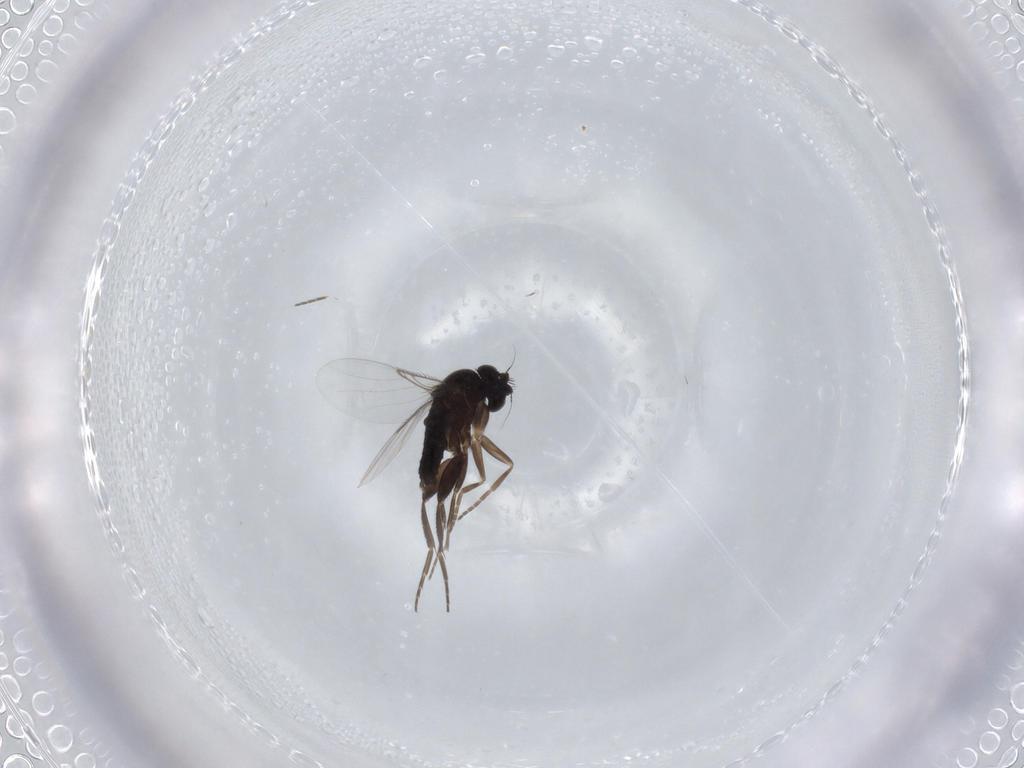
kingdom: Animalia
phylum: Arthropoda
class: Insecta
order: Diptera
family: Phoridae
